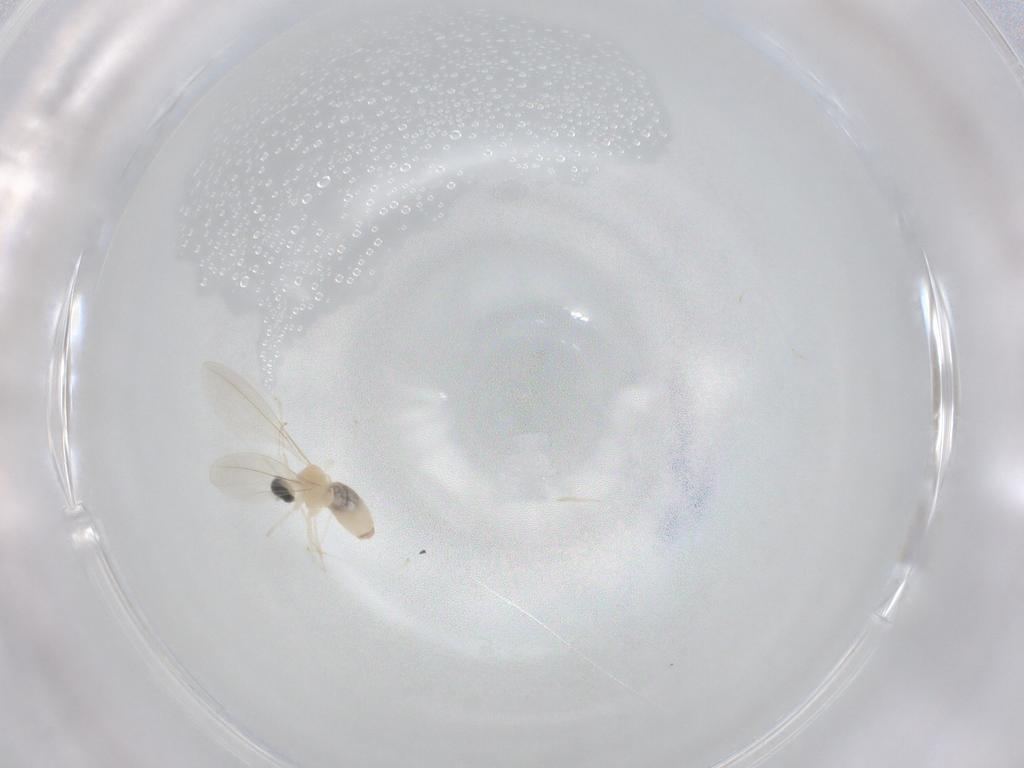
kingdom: Animalia
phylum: Arthropoda
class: Insecta
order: Diptera
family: Cecidomyiidae
